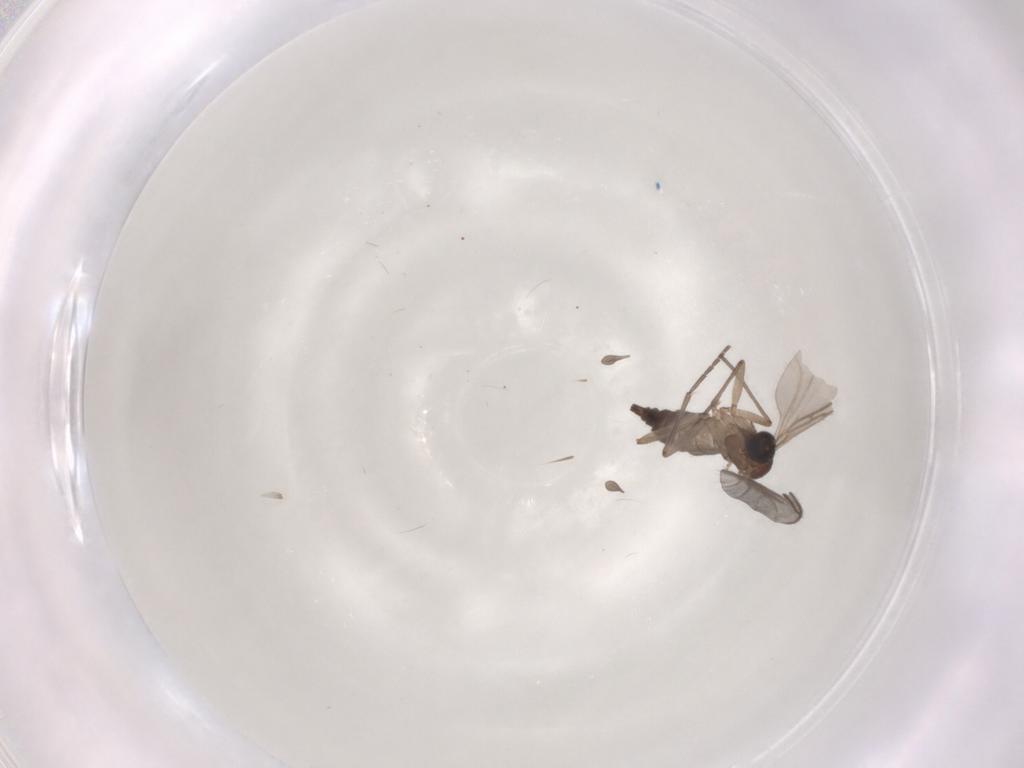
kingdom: Animalia
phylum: Arthropoda
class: Insecta
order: Diptera
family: Sciaridae
